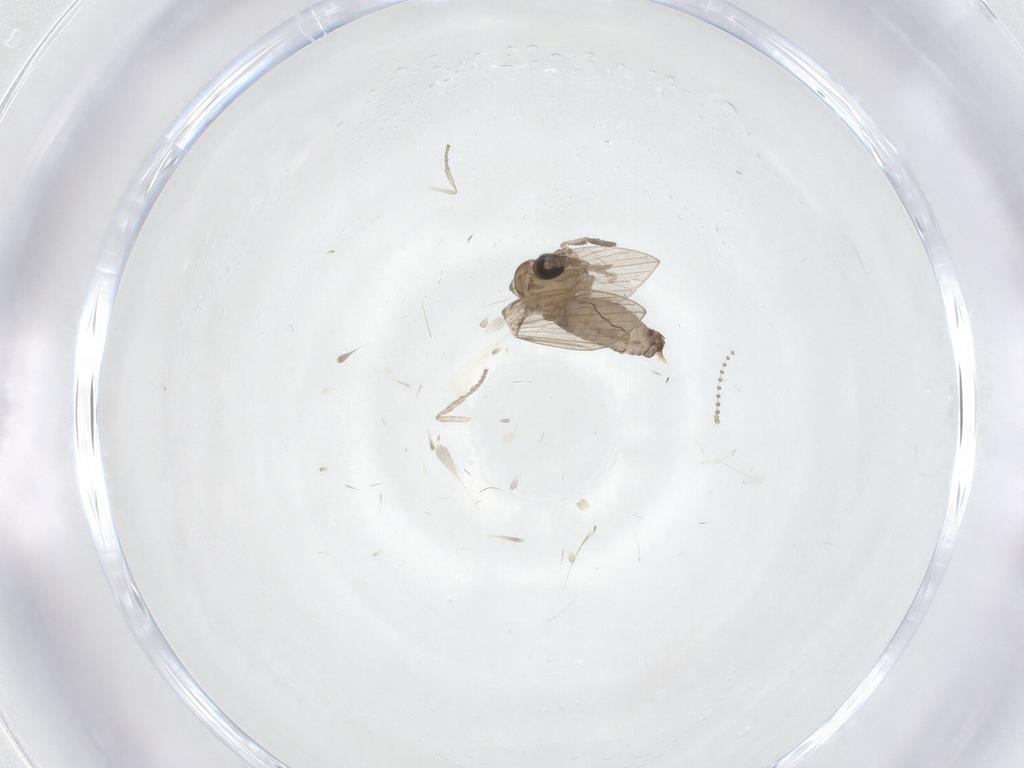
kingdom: Animalia
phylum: Arthropoda
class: Insecta
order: Diptera
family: Psychodidae
